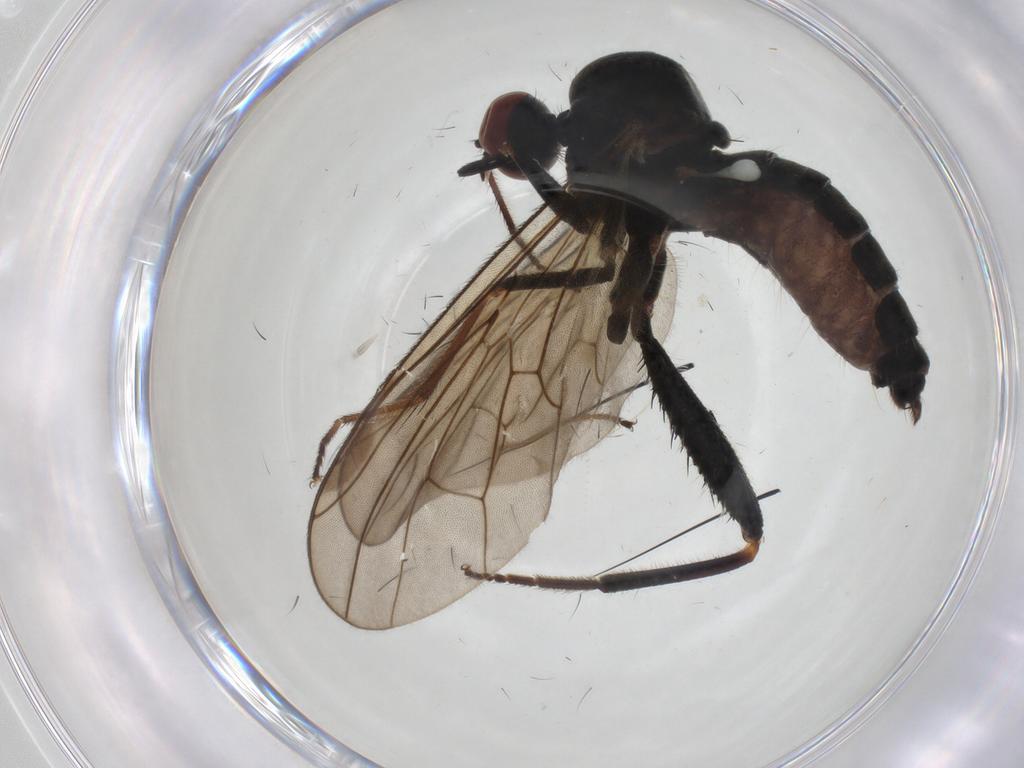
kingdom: Animalia
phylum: Arthropoda
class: Insecta
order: Diptera
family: Hybotidae
